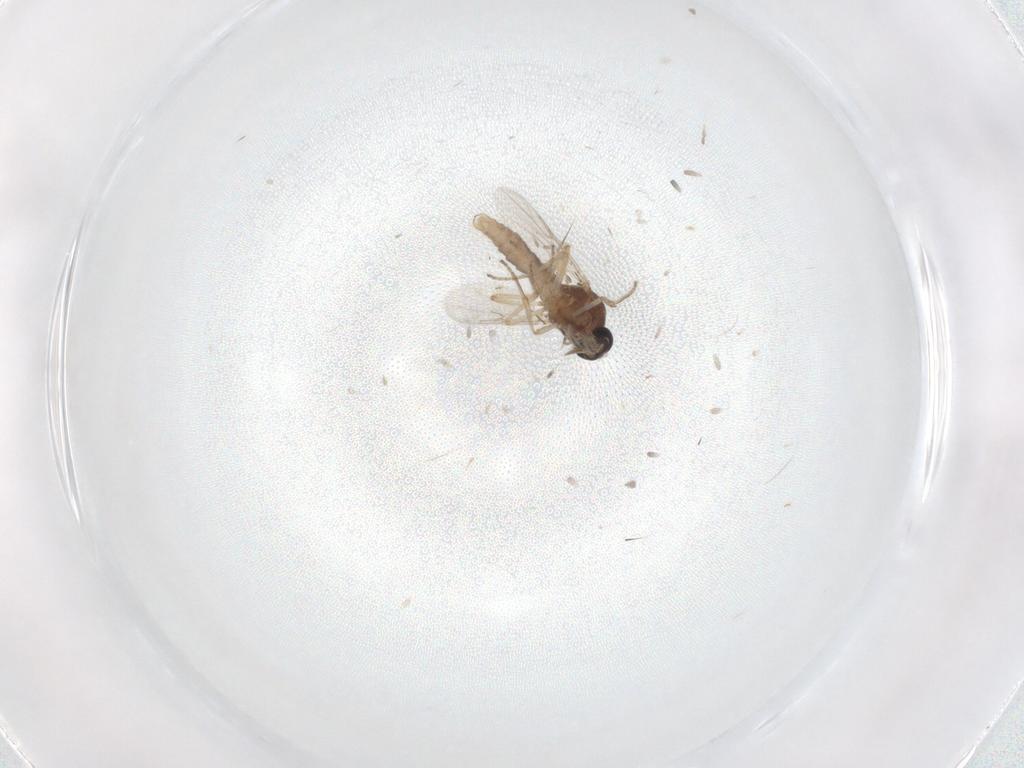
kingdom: Animalia
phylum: Arthropoda
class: Insecta
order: Diptera
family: Ceratopogonidae
